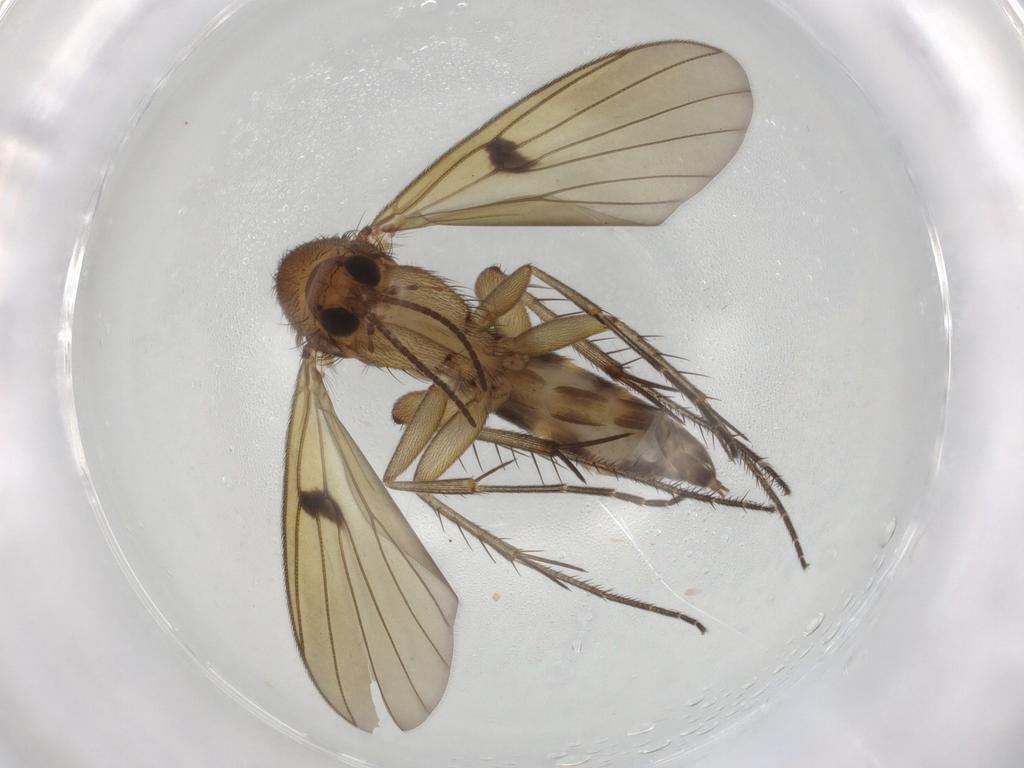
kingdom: Animalia
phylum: Arthropoda
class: Insecta
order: Diptera
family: Mycetophilidae
